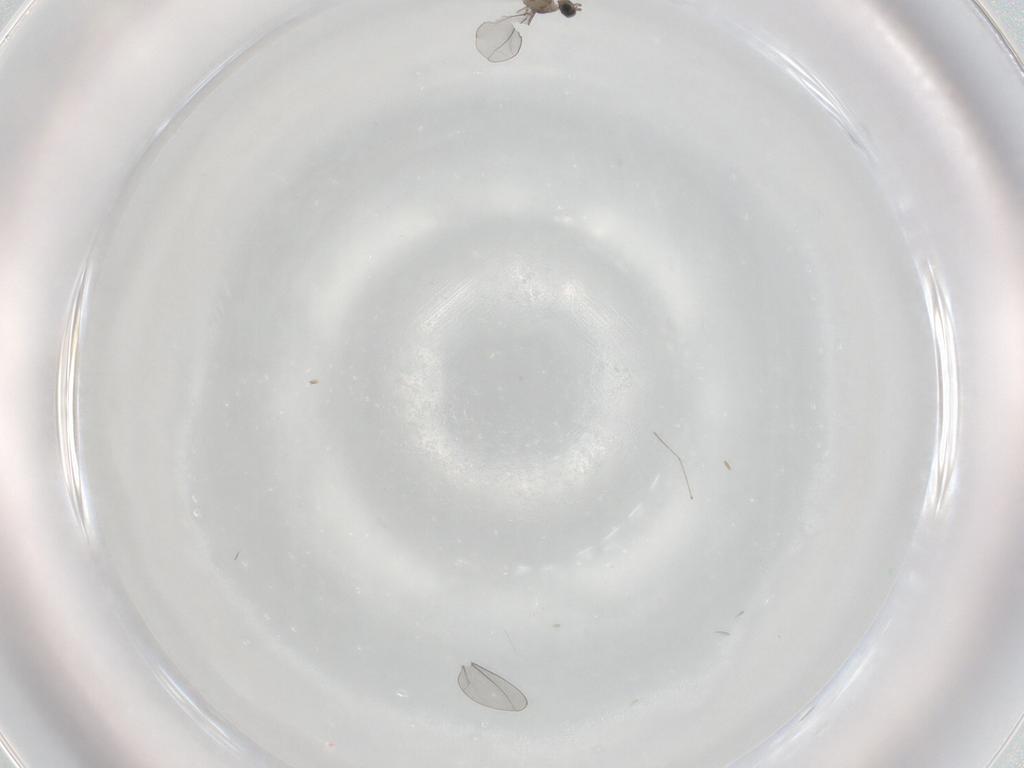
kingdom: Animalia
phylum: Arthropoda
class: Insecta
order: Diptera
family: Cecidomyiidae
